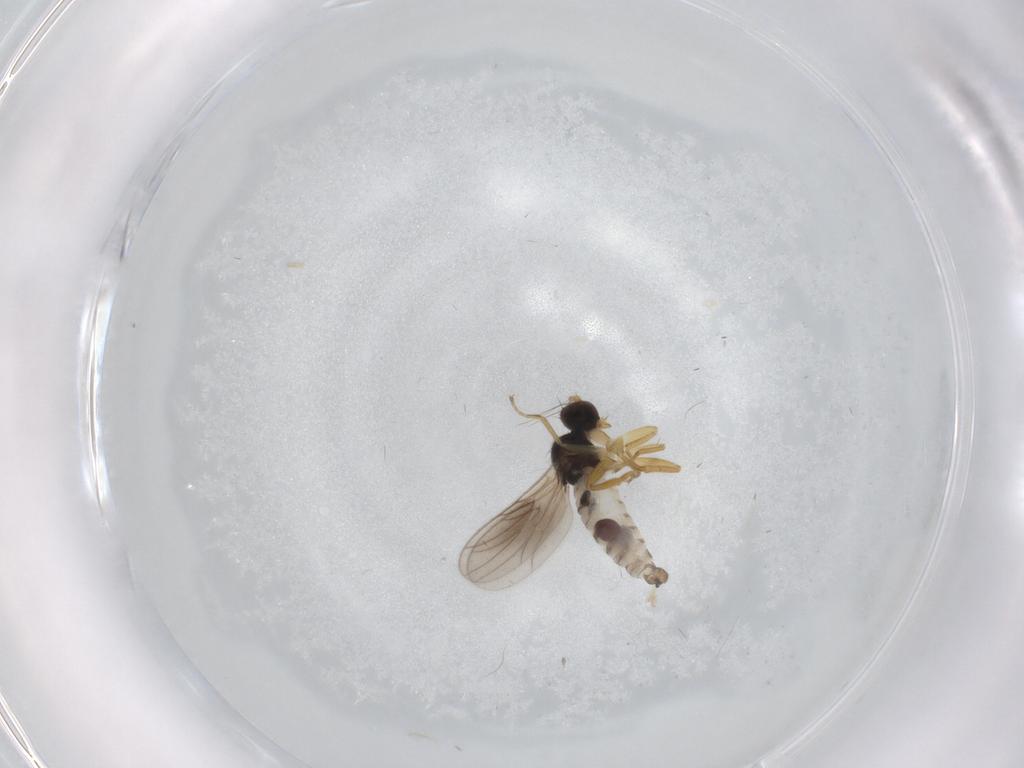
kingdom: Animalia
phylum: Arthropoda
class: Insecta
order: Diptera
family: Hybotidae
